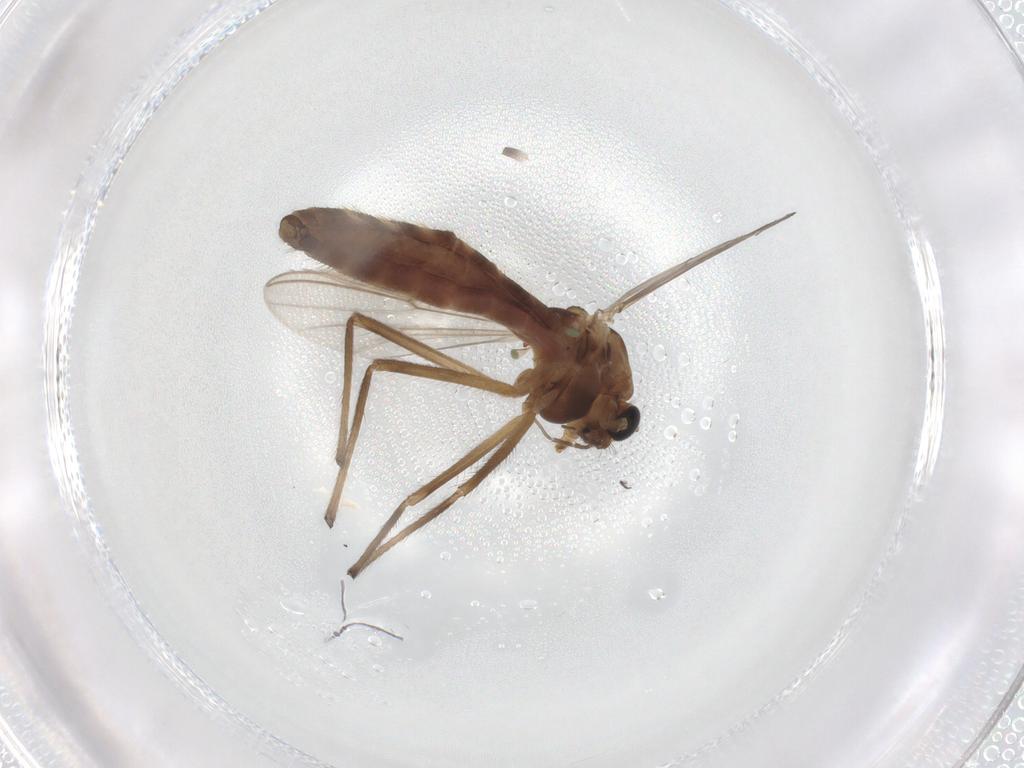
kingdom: Animalia
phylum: Arthropoda
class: Insecta
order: Diptera
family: Chironomidae
